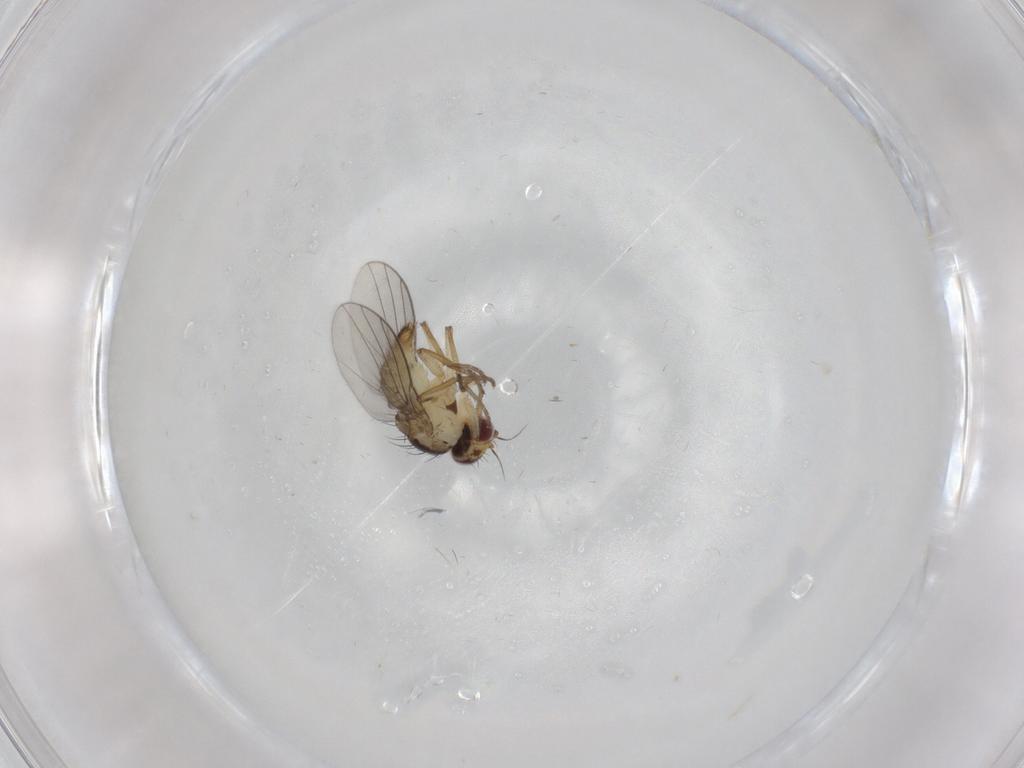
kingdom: Animalia
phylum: Arthropoda
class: Insecta
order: Diptera
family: Agromyzidae
